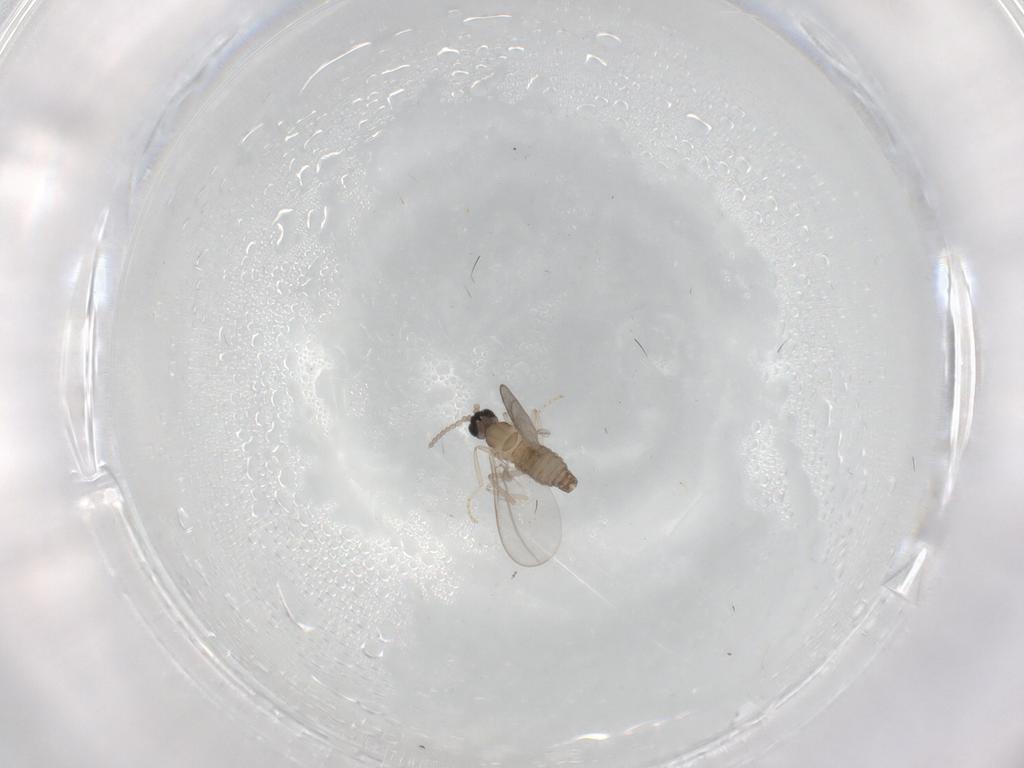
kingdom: Animalia
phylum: Arthropoda
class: Insecta
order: Diptera
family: Cecidomyiidae
